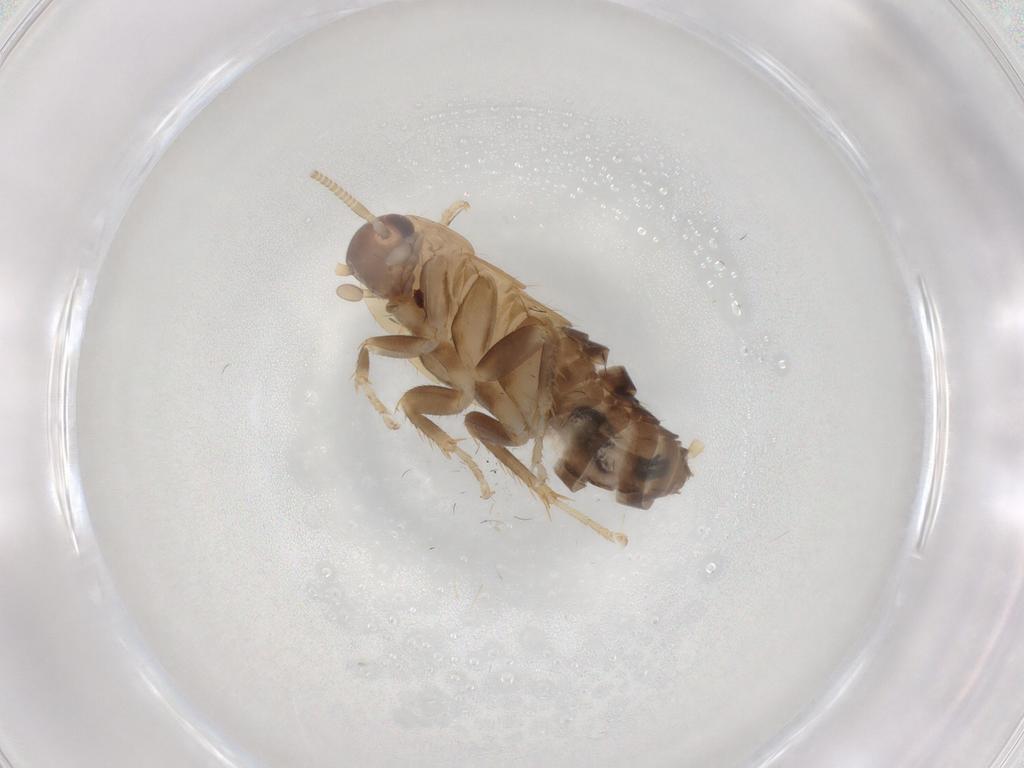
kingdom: Animalia
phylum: Arthropoda
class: Insecta
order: Blattodea
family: Ectobiidae
